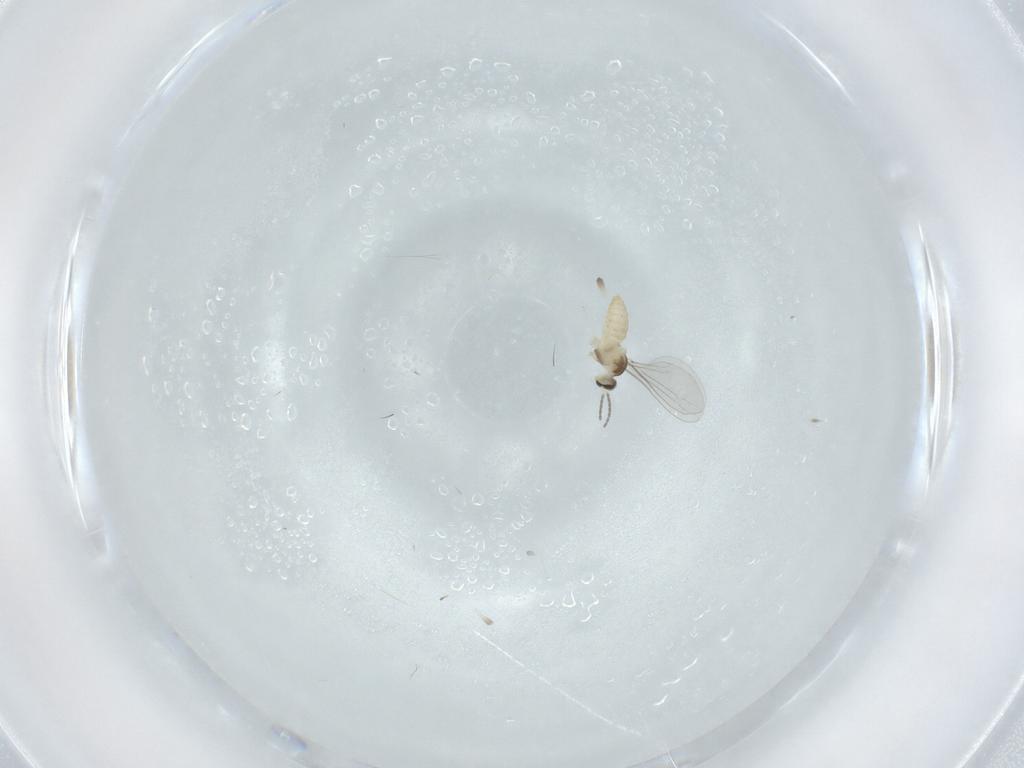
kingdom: Animalia
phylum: Arthropoda
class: Insecta
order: Diptera
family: Cecidomyiidae
